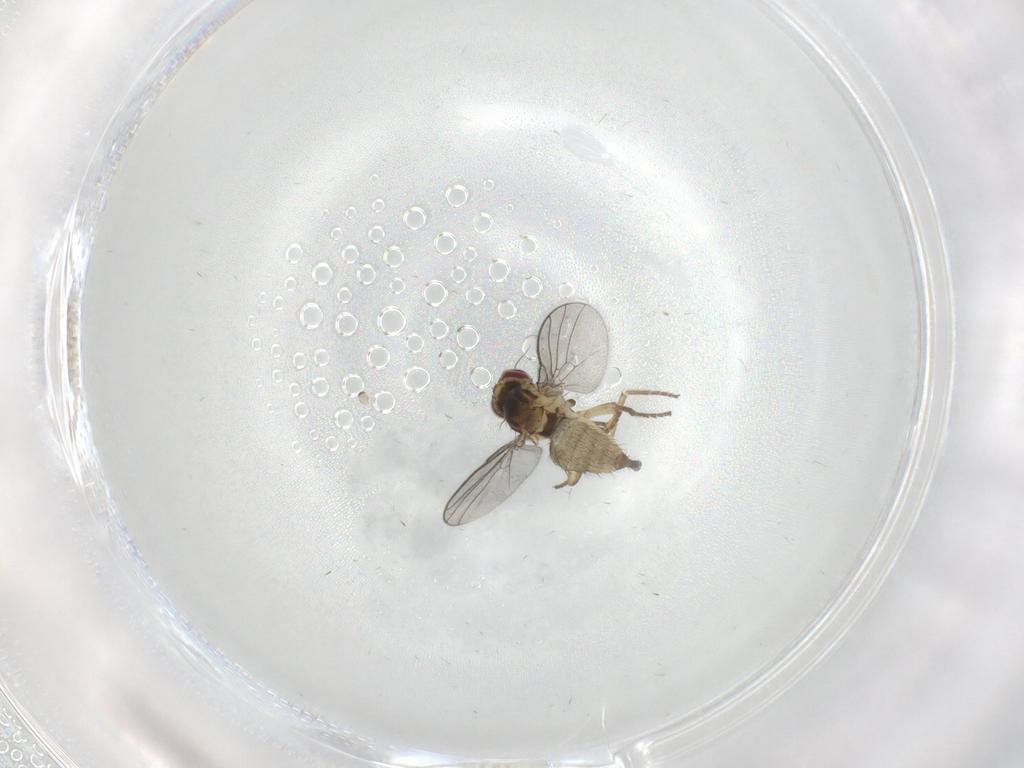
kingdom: Animalia
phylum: Arthropoda
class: Insecta
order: Diptera
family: Agromyzidae
